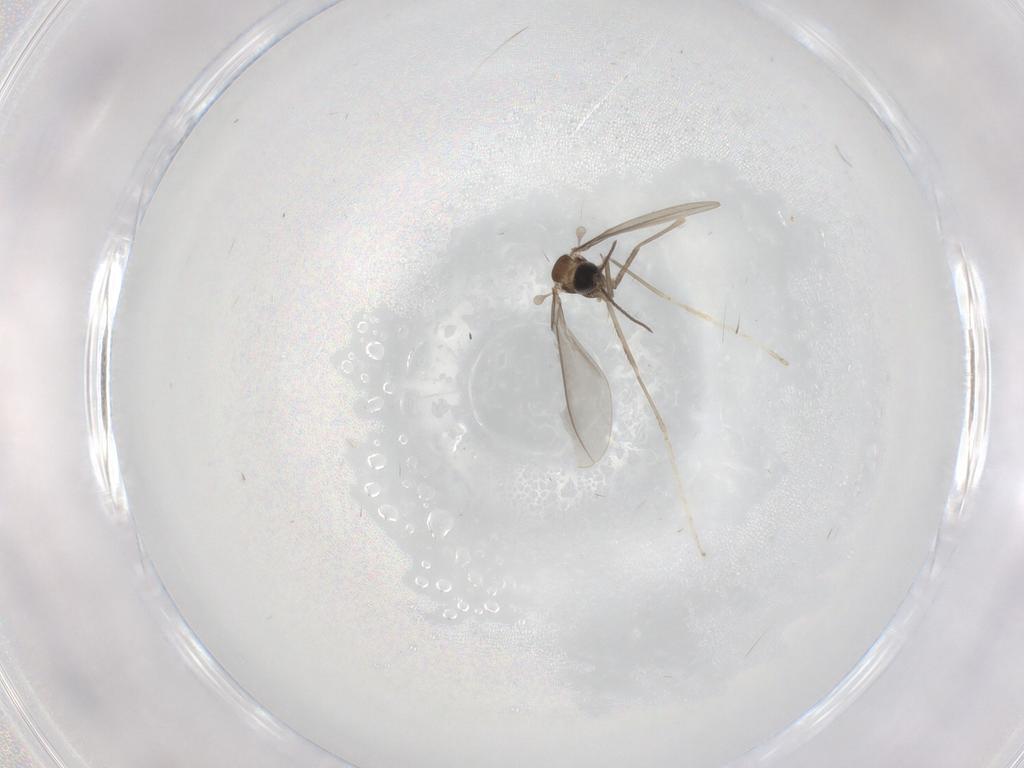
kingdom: Animalia
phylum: Arthropoda
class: Insecta
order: Diptera
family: Cecidomyiidae
